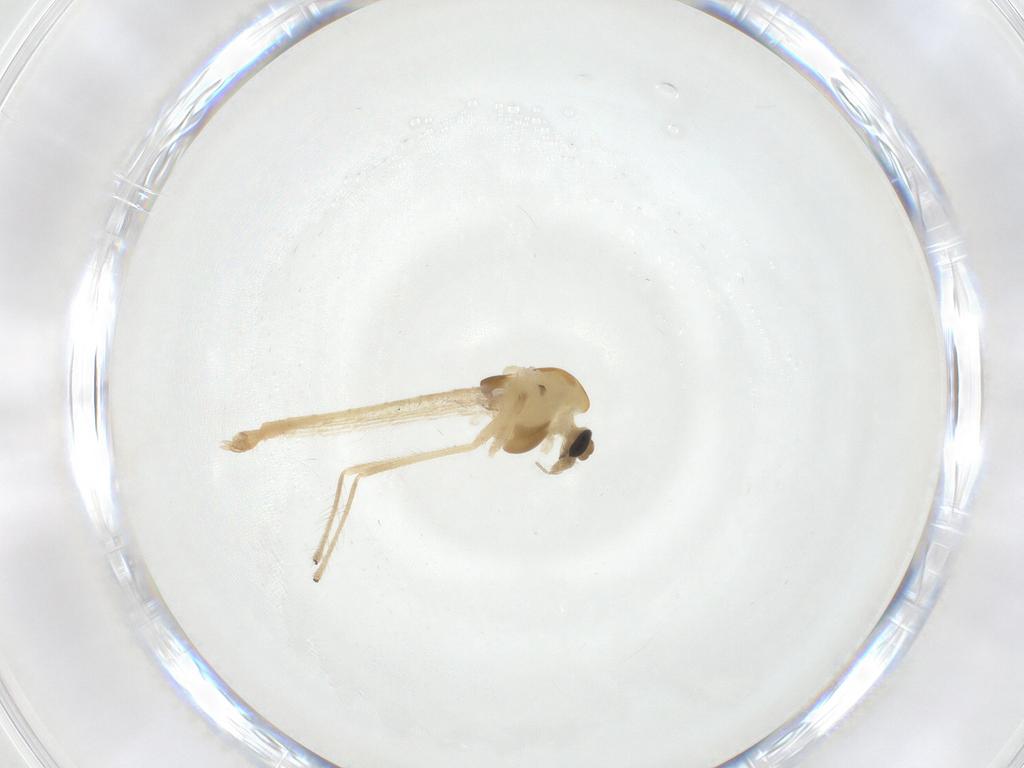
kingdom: Animalia
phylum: Arthropoda
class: Insecta
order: Diptera
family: Chironomidae
